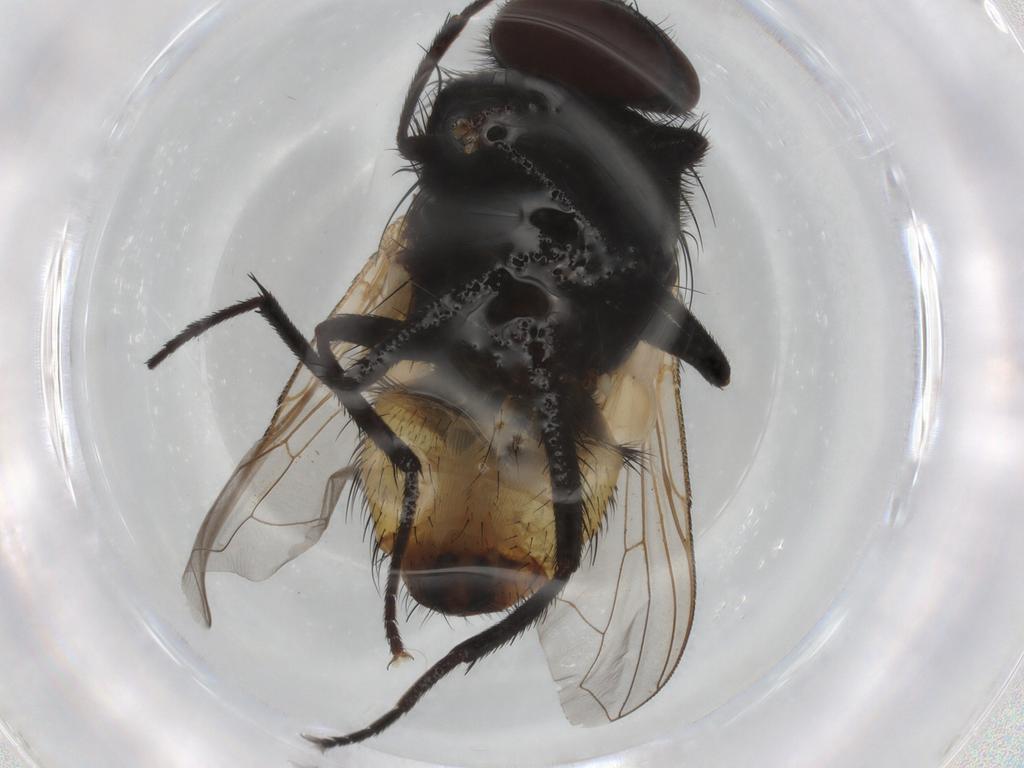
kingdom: Animalia
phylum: Arthropoda
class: Insecta
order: Diptera
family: Muscidae
